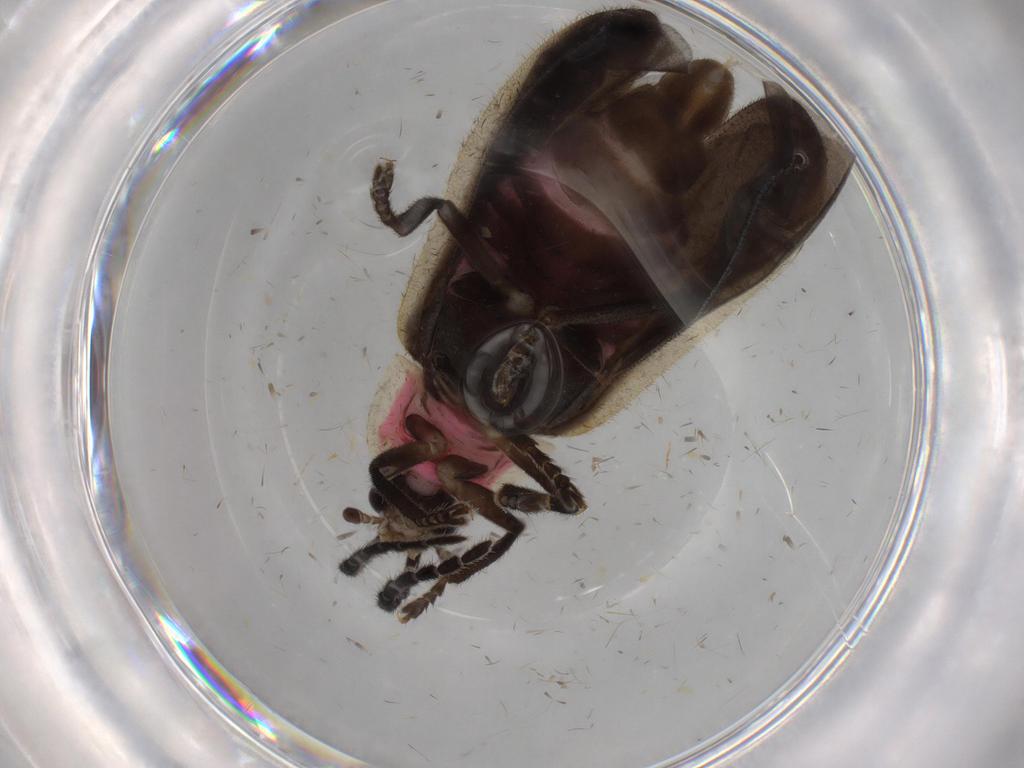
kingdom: Animalia
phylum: Arthropoda
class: Insecta
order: Coleoptera
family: Lampyridae
